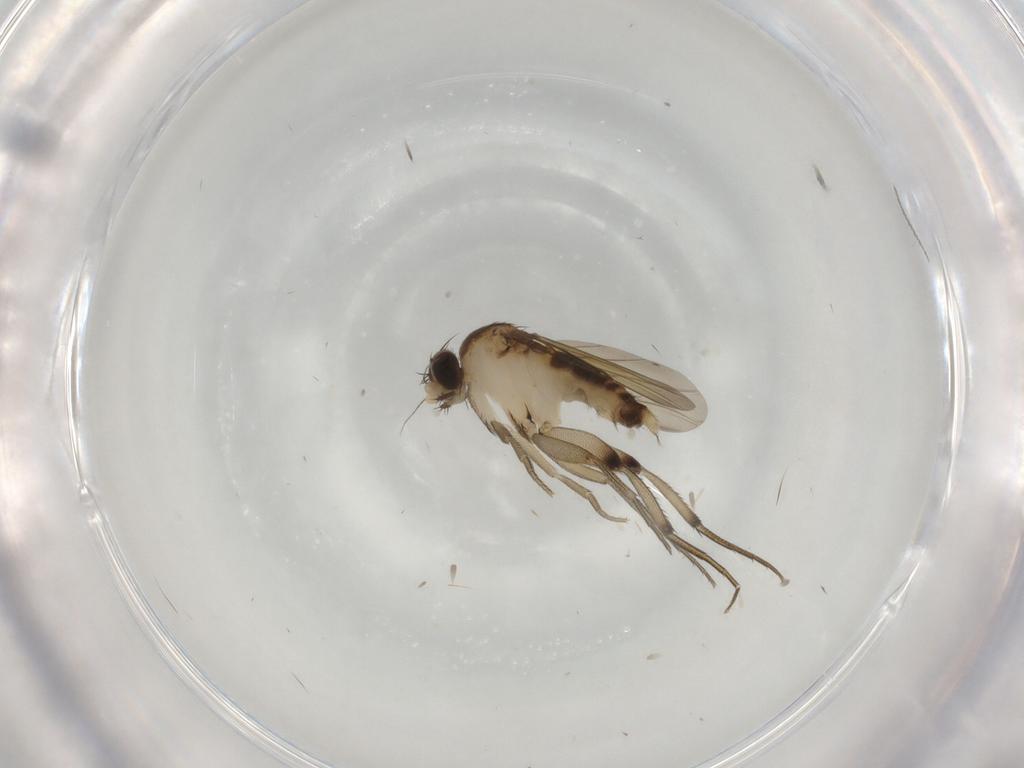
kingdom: Animalia
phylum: Arthropoda
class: Insecta
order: Diptera
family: Phoridae
